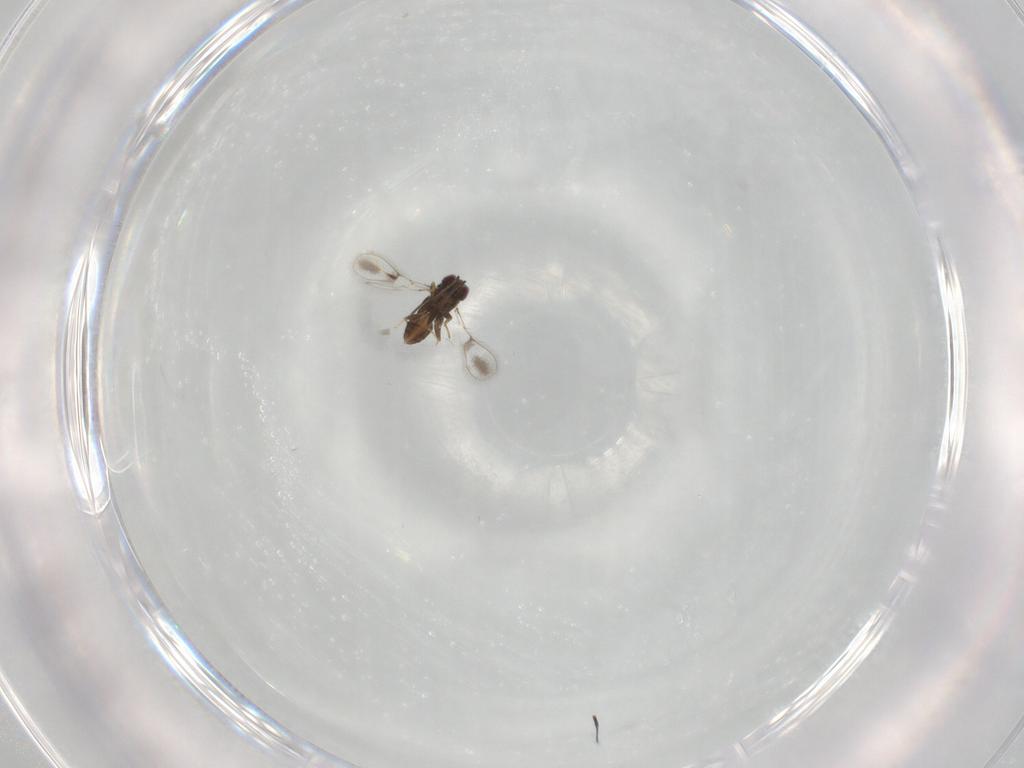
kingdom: Animalia
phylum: Arthropoda
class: Insecta
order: Hymenoptera
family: Mymaridae
